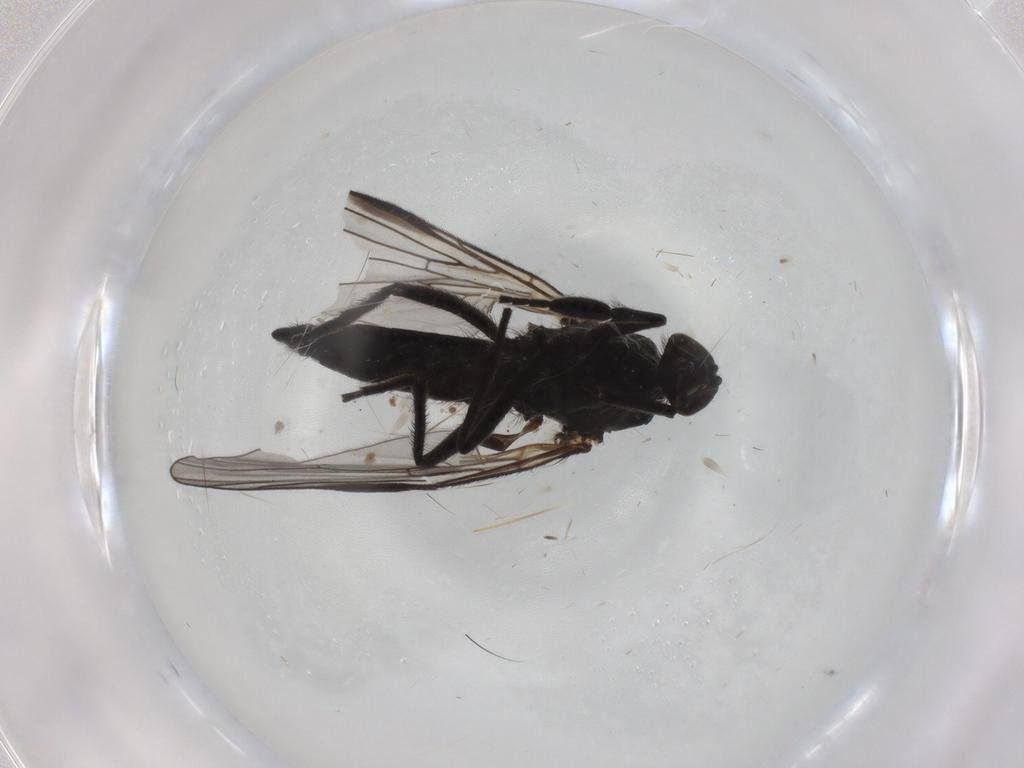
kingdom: Animalia
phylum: Arthropoda
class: Insecta
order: Diptera
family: Empididae
